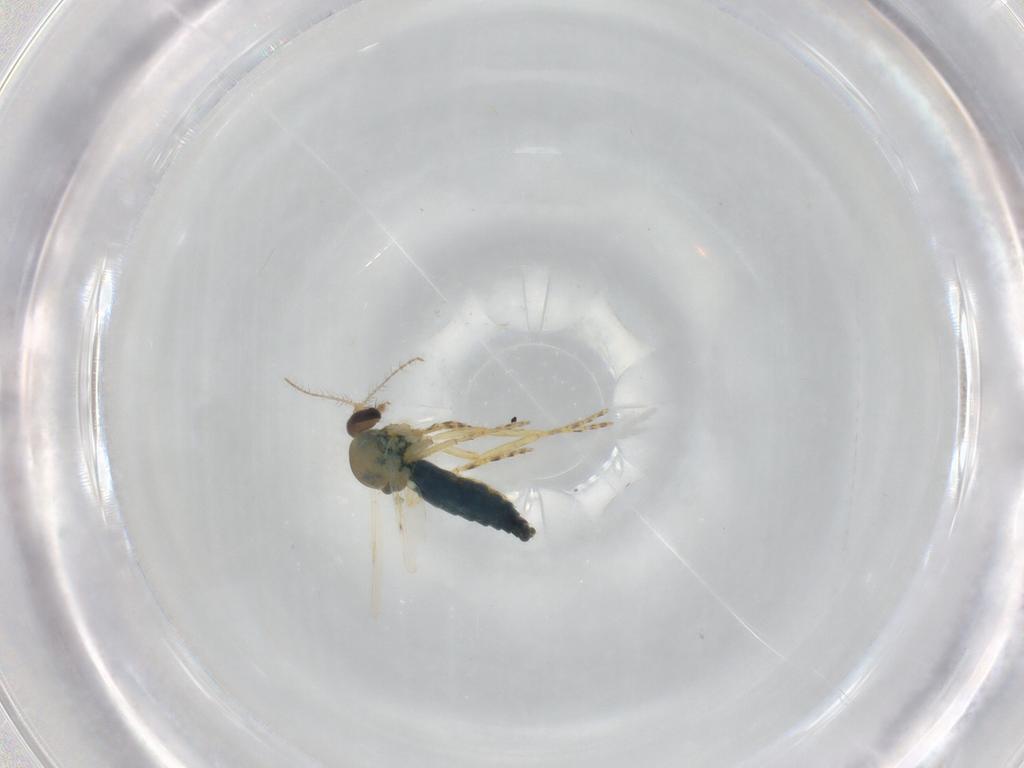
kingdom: Animalia
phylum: Arthropoda
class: Insecta
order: Diptera
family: Ceratopogonidae
